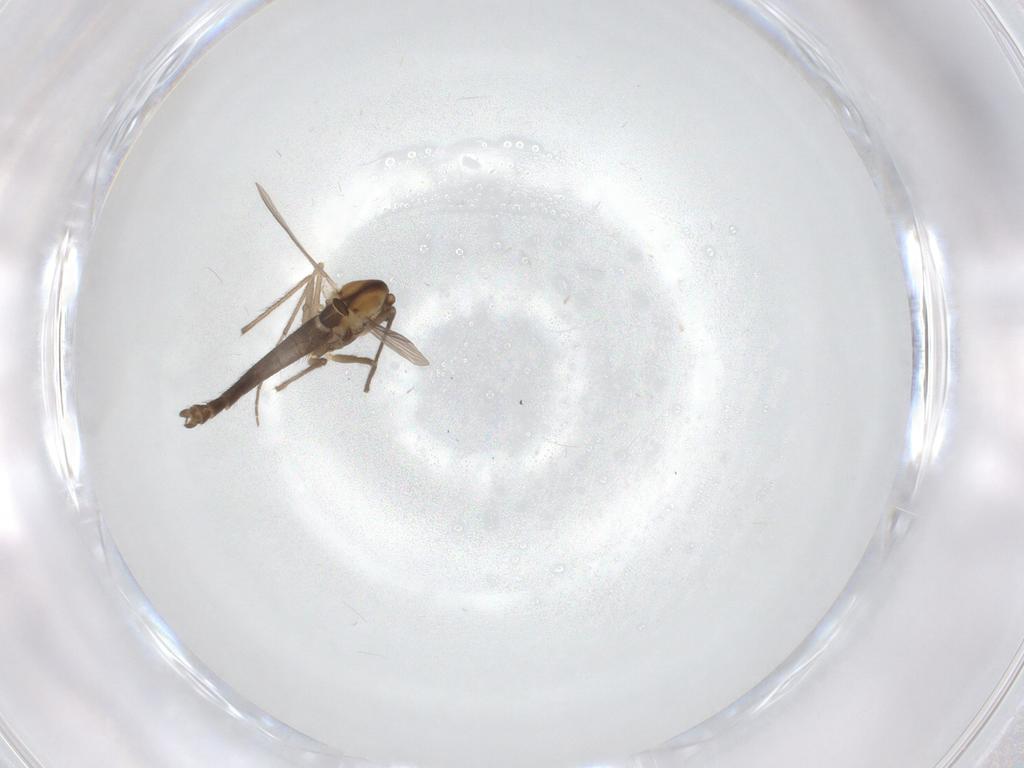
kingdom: Animalia
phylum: Arthropoda
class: Insecta
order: Diptera
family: Chironomidae
